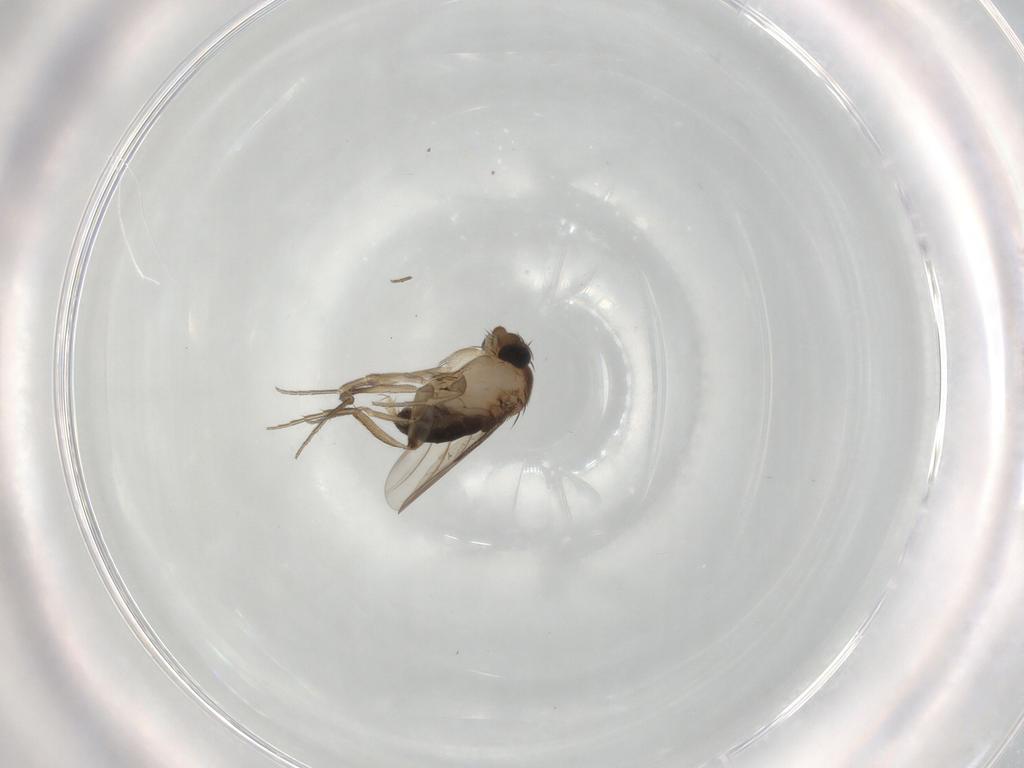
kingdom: Animalia
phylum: Arthropoda
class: Insecta
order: Diptera
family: Phoridae
